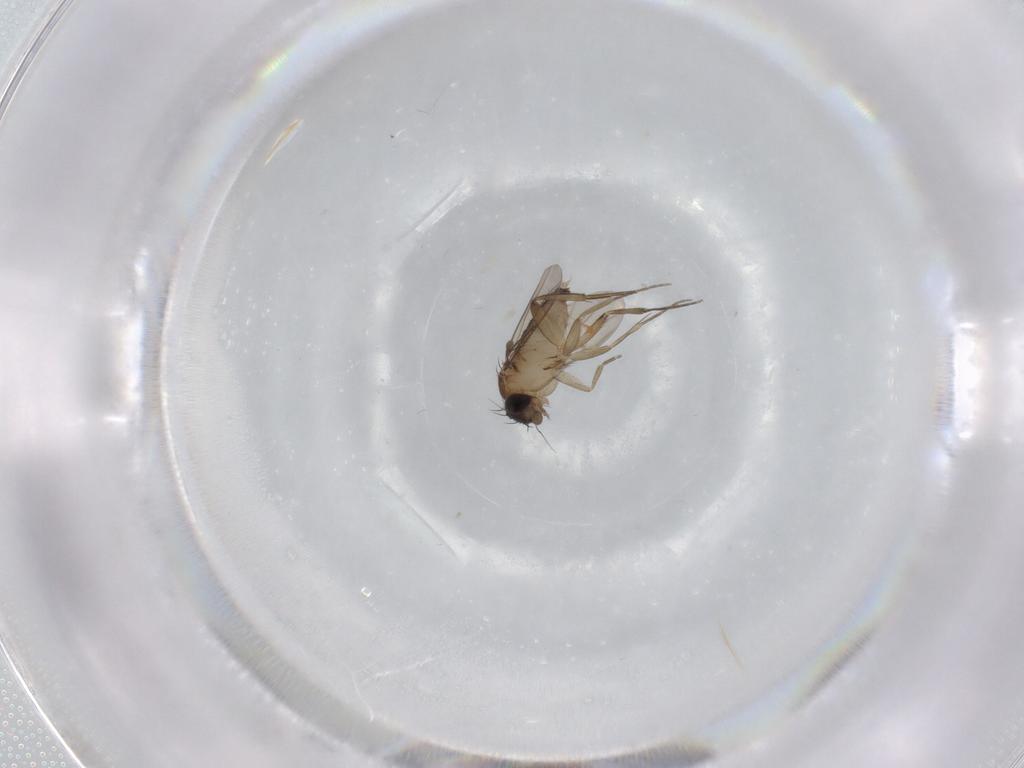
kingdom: Animalia
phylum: Arthropoda
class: Insecta
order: Diptera
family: Phoridae
